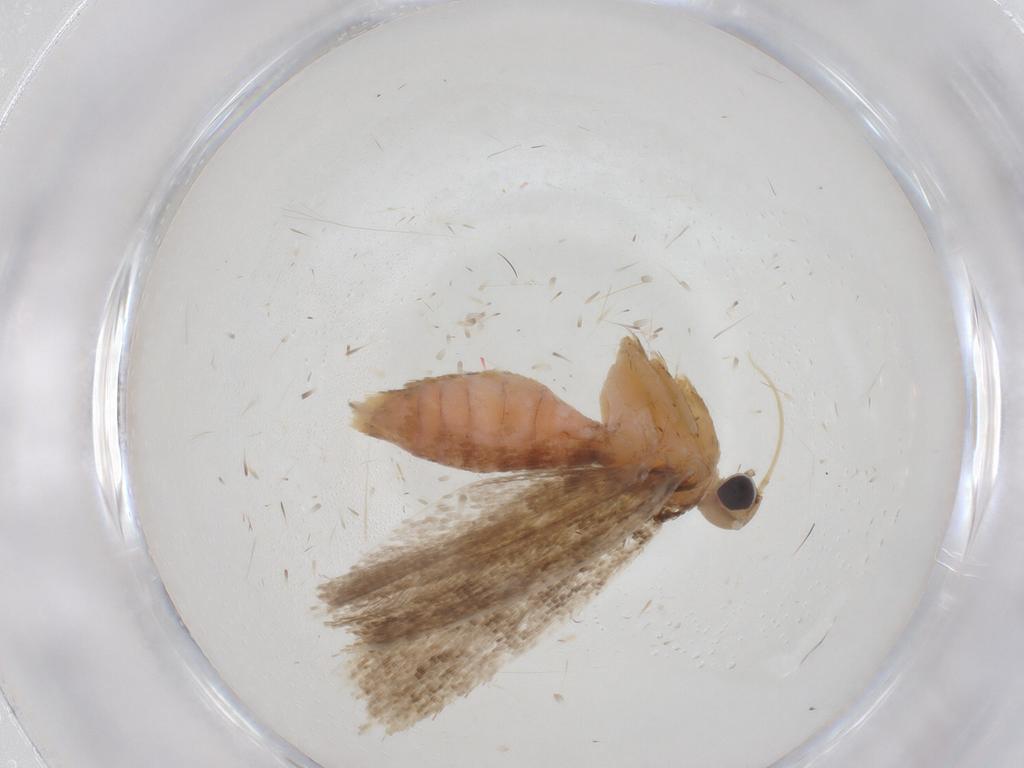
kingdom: Animalia
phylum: Arthropoda
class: Insecta
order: Lepidoptera
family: Gelechiidae
